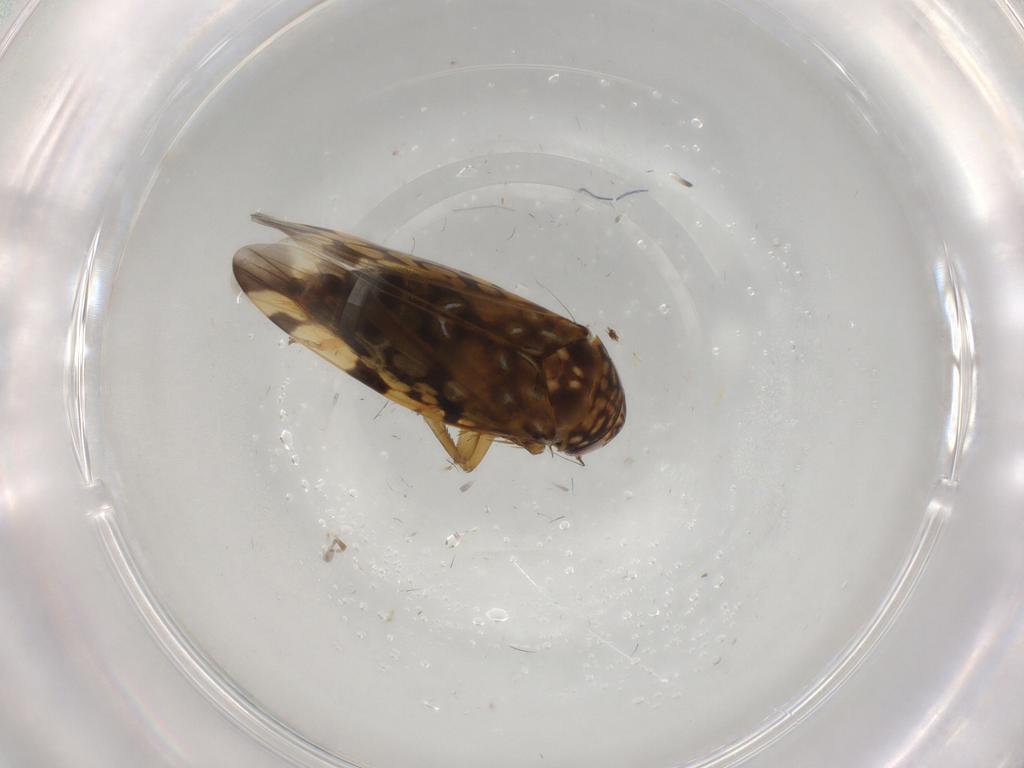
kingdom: Animalia
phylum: Arthropoda
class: Insecta
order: Hemiptera
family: Cicadellidae
